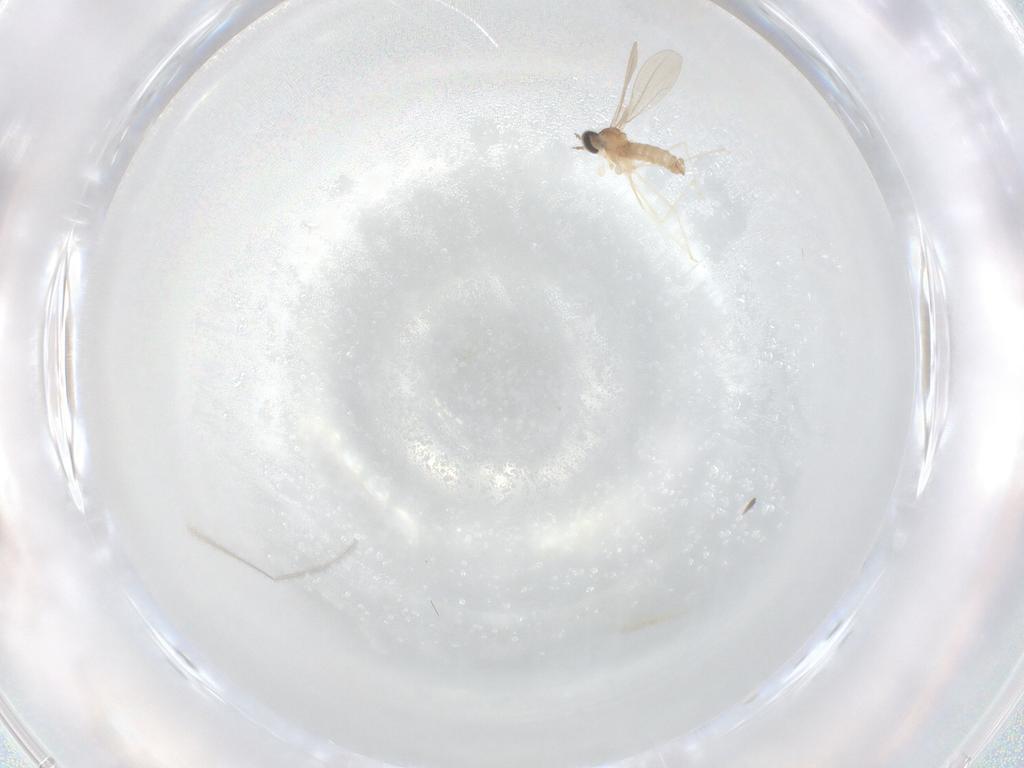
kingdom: Animalia
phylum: Arthropoda
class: Insecta
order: Diptera
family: Cecidomyiidae
